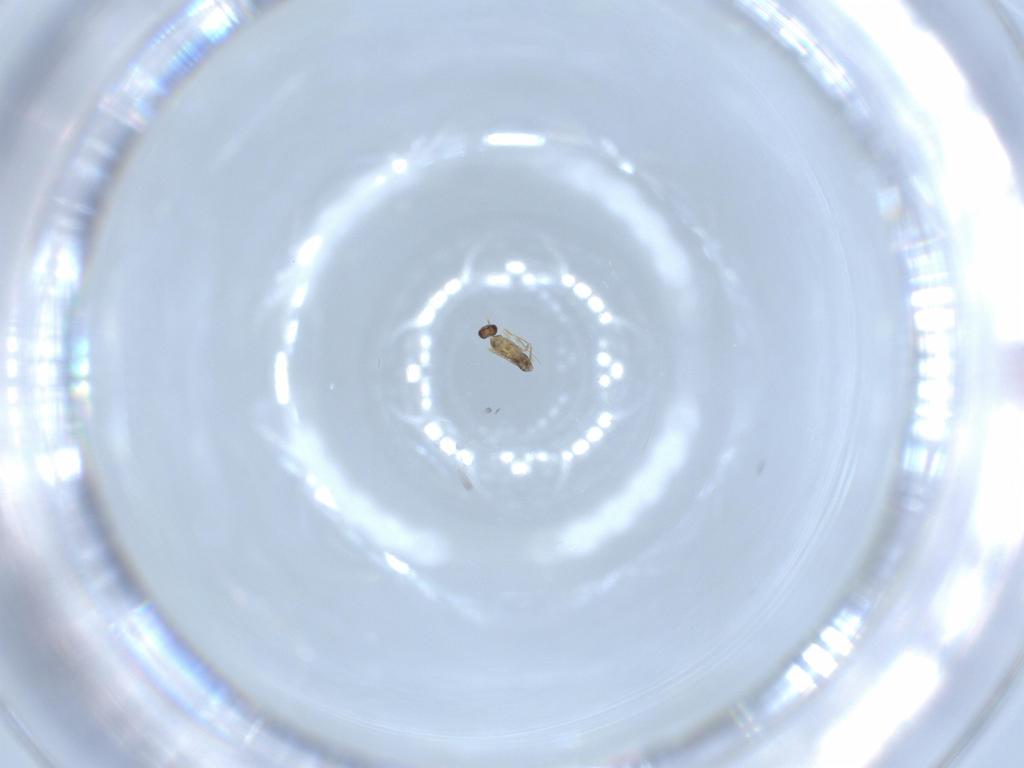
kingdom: Animalia
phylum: Arthropoda
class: Insecta
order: Hymenoptera
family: Mymaridae
